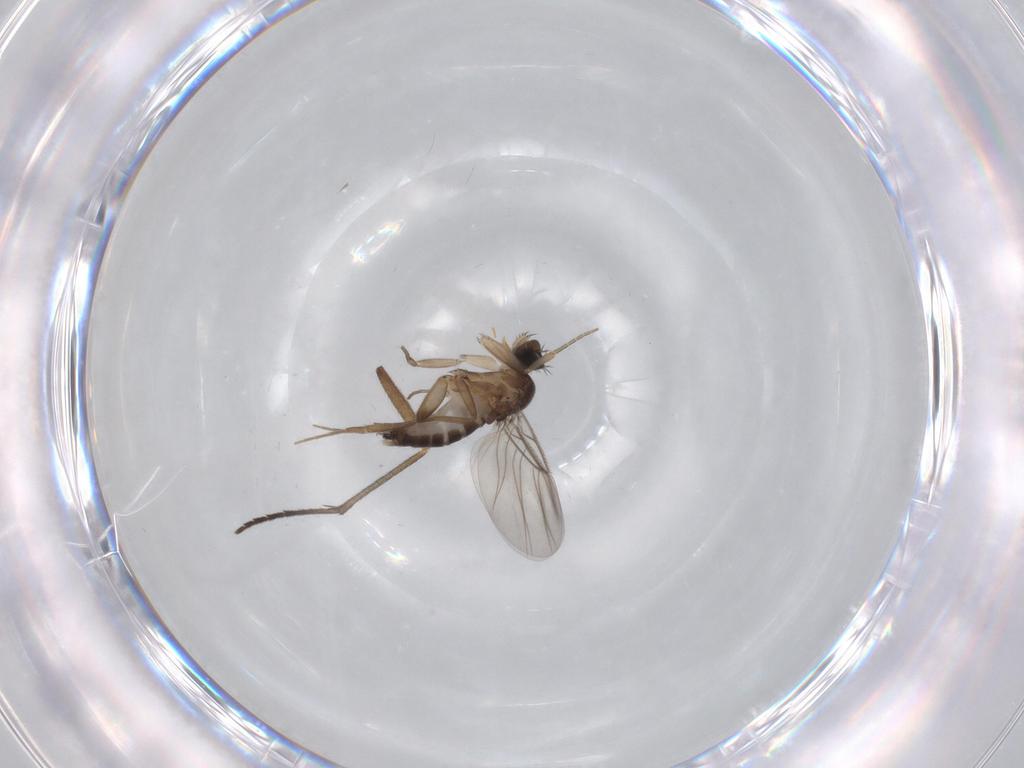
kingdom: Animalia
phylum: Arthropoda
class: Insecta
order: Diptera
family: Phoridae
